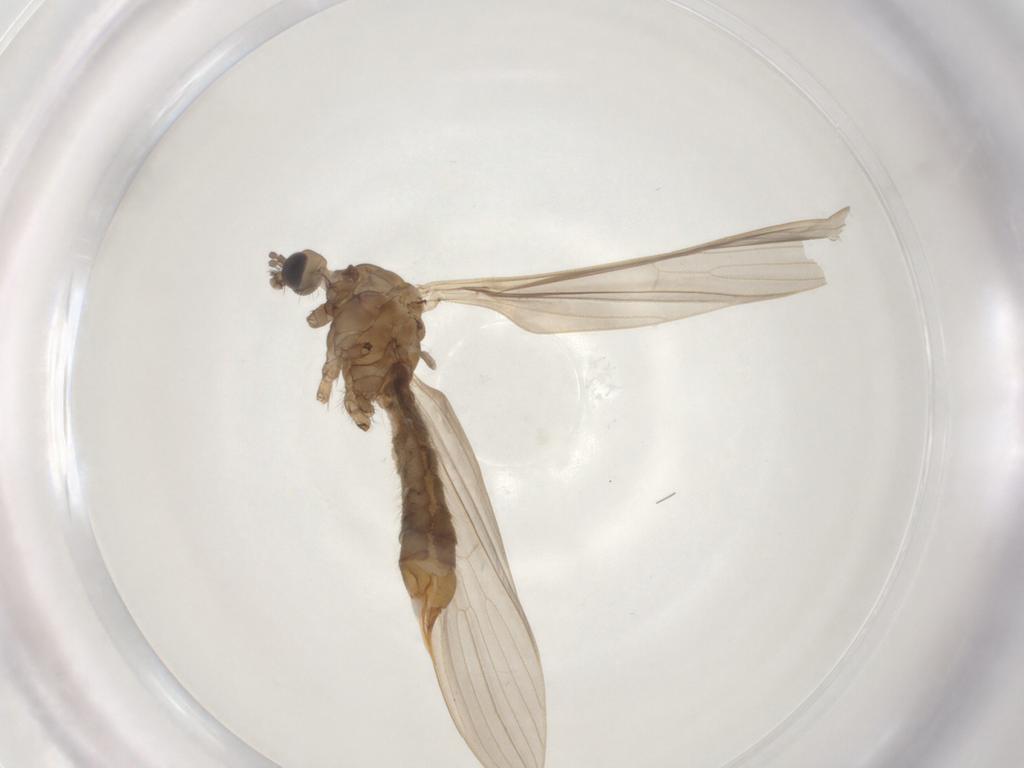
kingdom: Animalia
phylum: Arthropoda
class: Insecta
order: Diptera
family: Limoniidae
